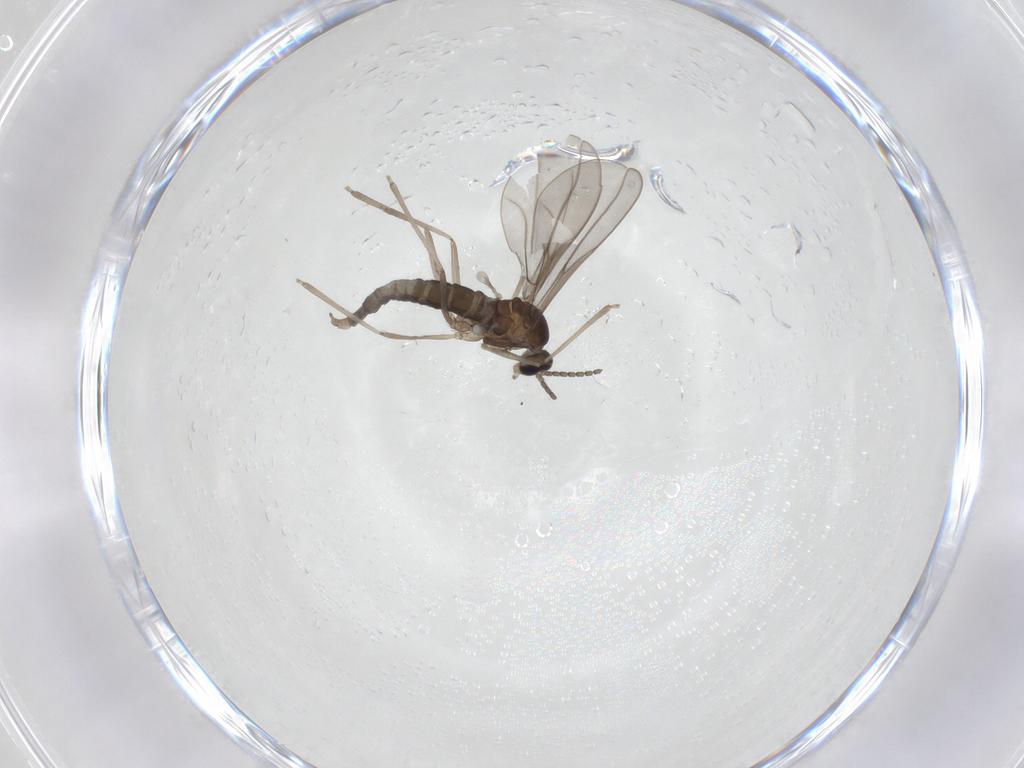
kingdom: Animalia
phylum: Arthropoda
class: Insecta
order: Diptera
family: Cecidomyiidae
